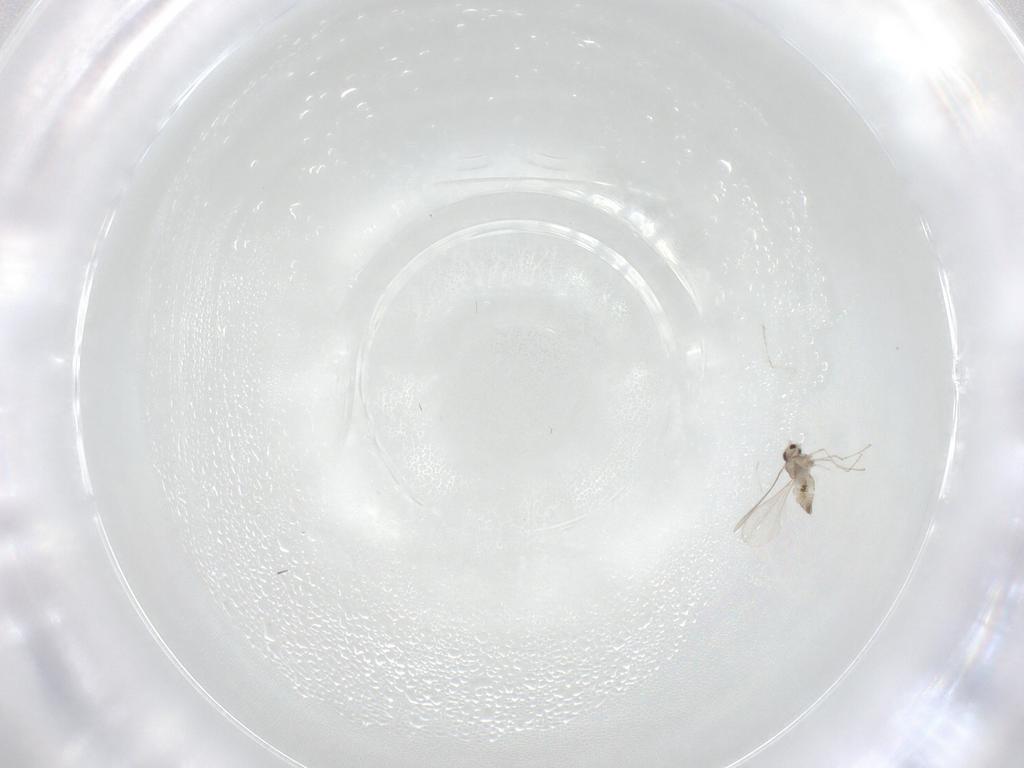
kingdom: Animalia
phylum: Arthropoda
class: Insecta
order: Diptera
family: Cecidomyiidae
